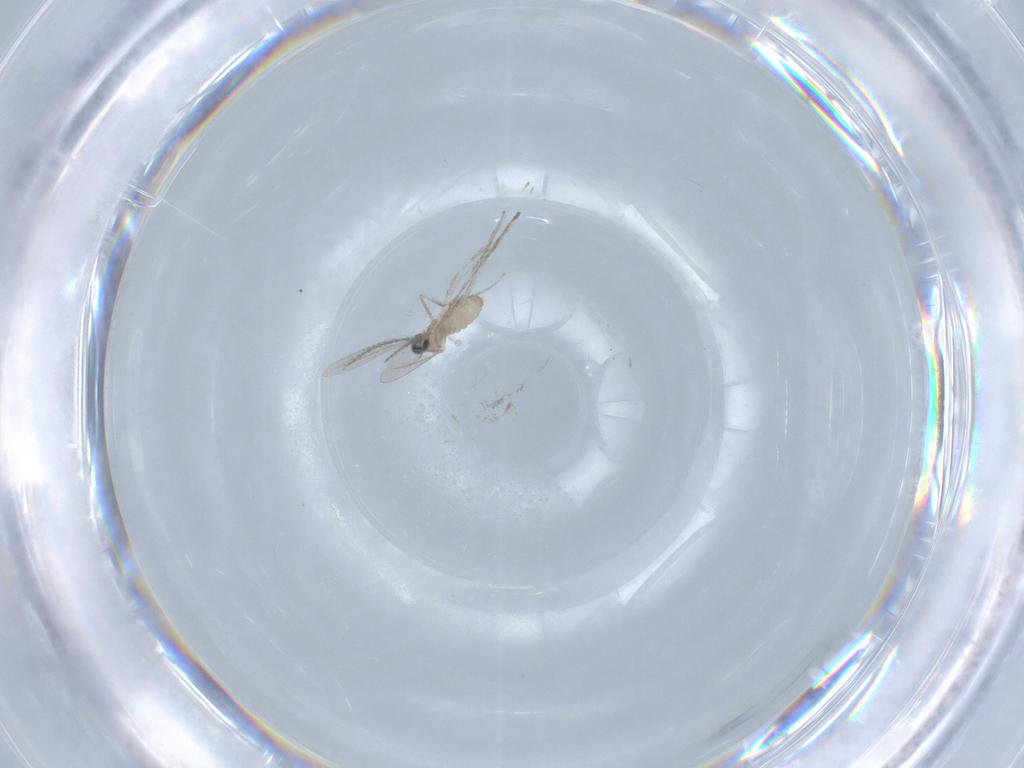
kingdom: Animalia
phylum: Arthropoda
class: Insecta
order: Diptera
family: Cecidomyiidae
